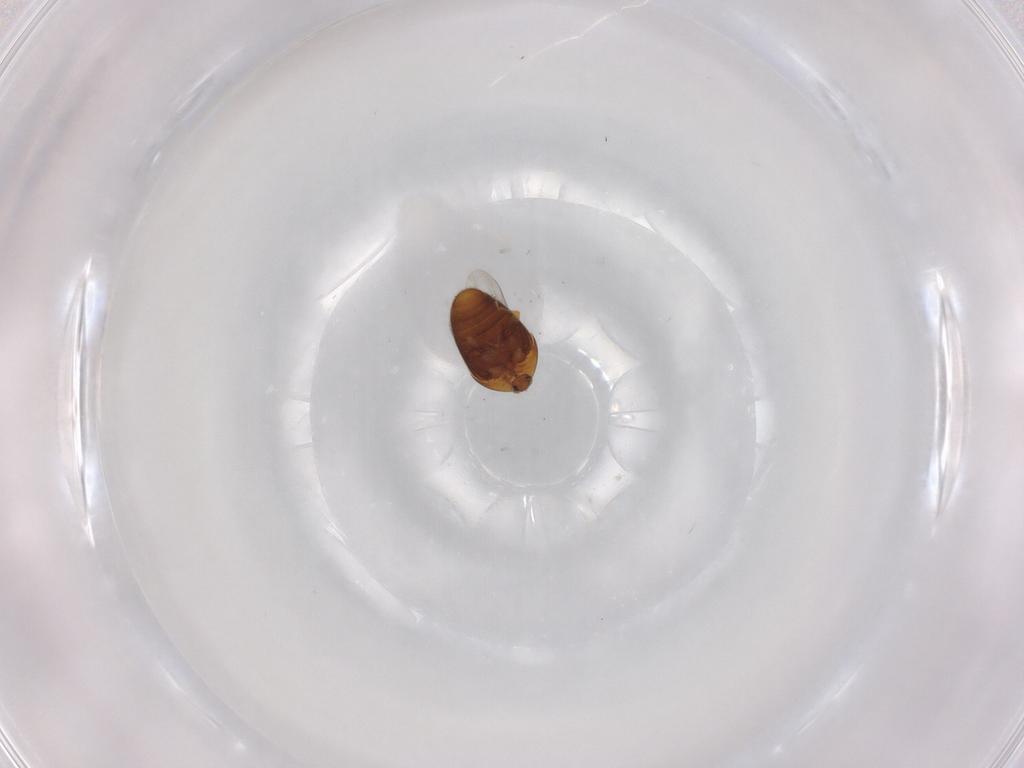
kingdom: Animalia
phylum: Arthropoda
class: Insecta
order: Coleoptera
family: Corylophidae
